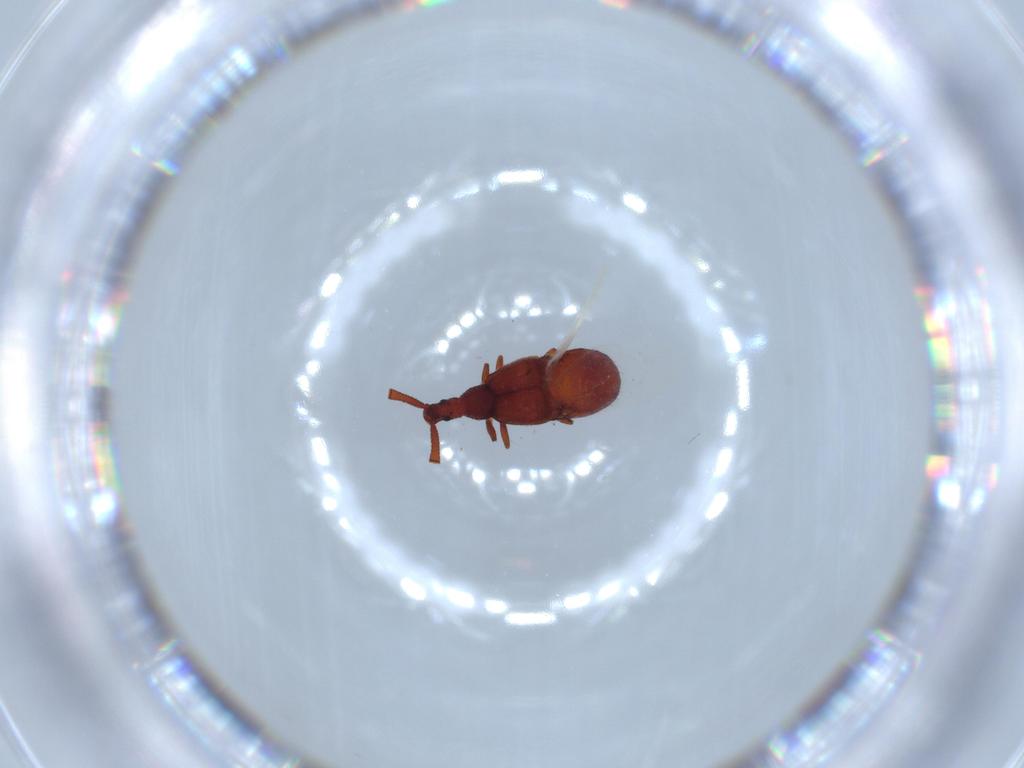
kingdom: Animalia
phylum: Arthropoda
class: Insecta
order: Coleoptera
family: Staphylinidae
